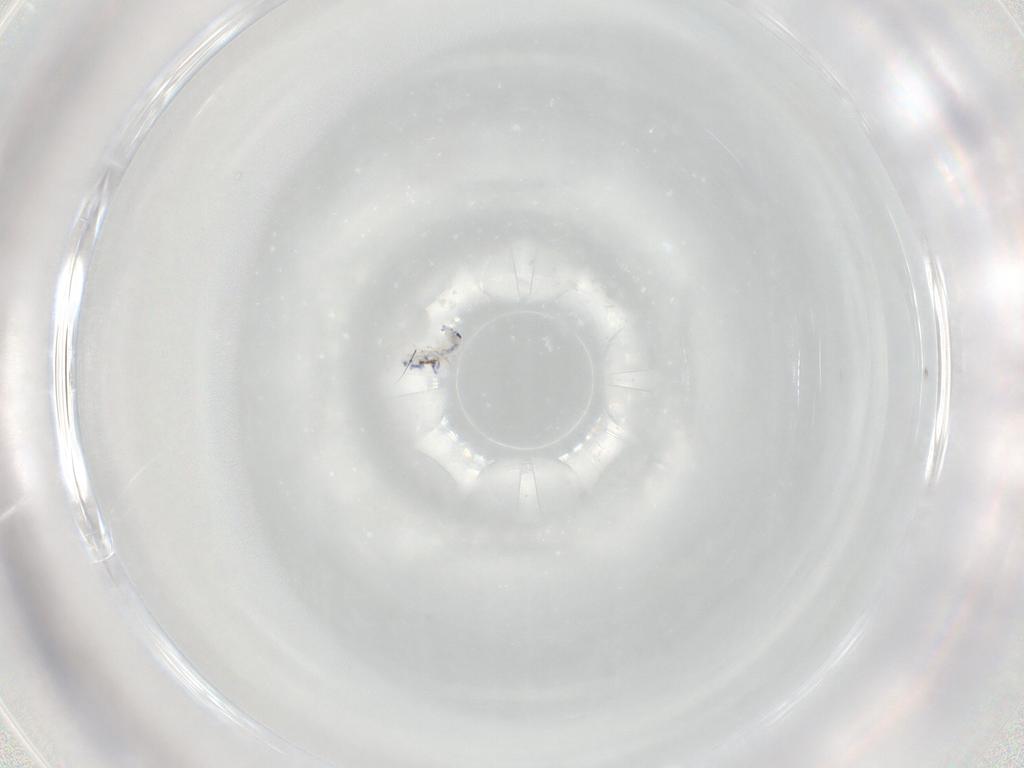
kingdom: Animalia
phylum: Arthropoda
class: Collembola
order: Entomobryomorpha
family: Entomobryidae
